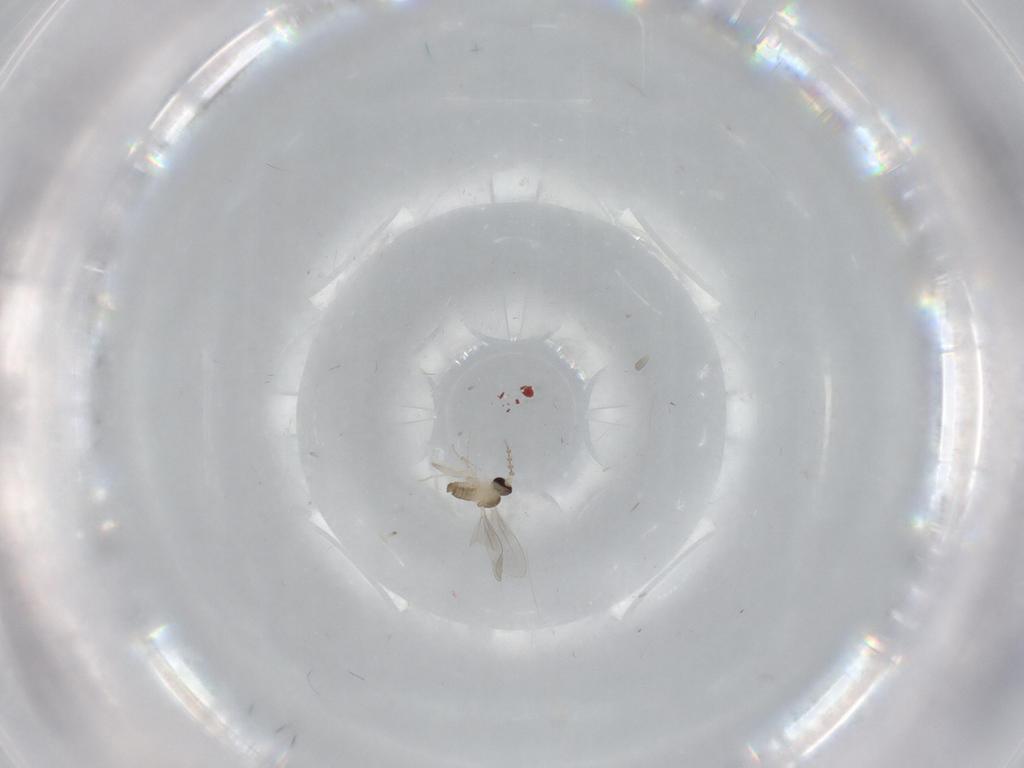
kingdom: Animalia
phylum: Arthropoda
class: Insecta
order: Diptera
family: Phoridae
